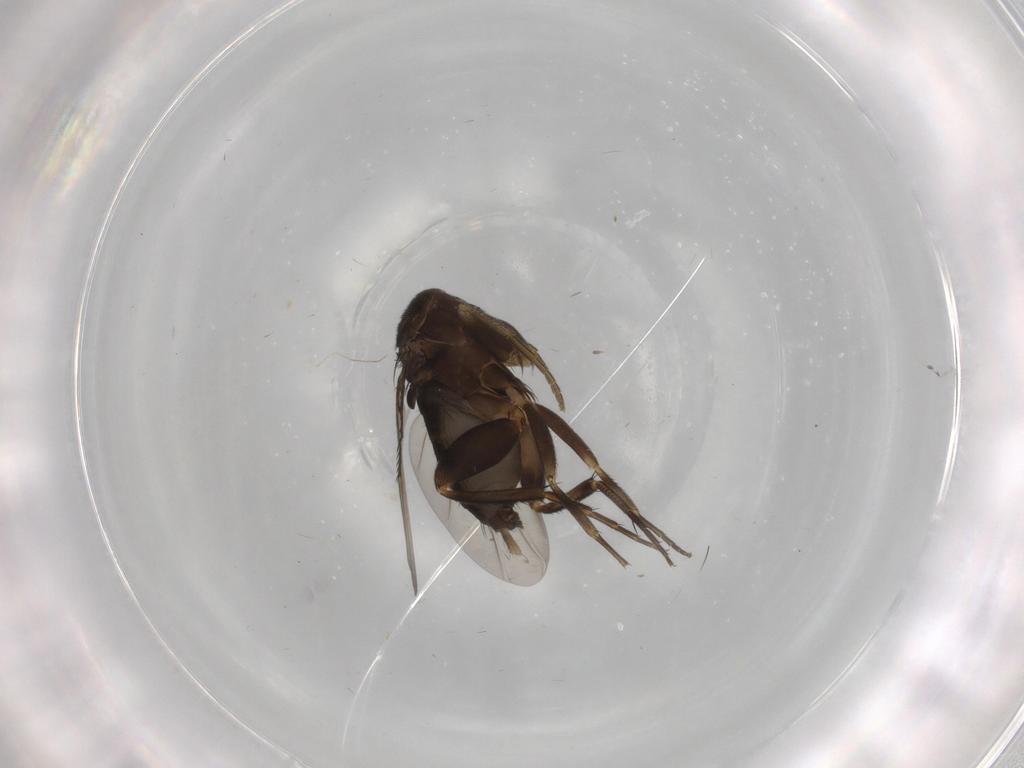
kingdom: Animalia
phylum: Arthropoda
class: Insecta
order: Diptera
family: Phoridae
